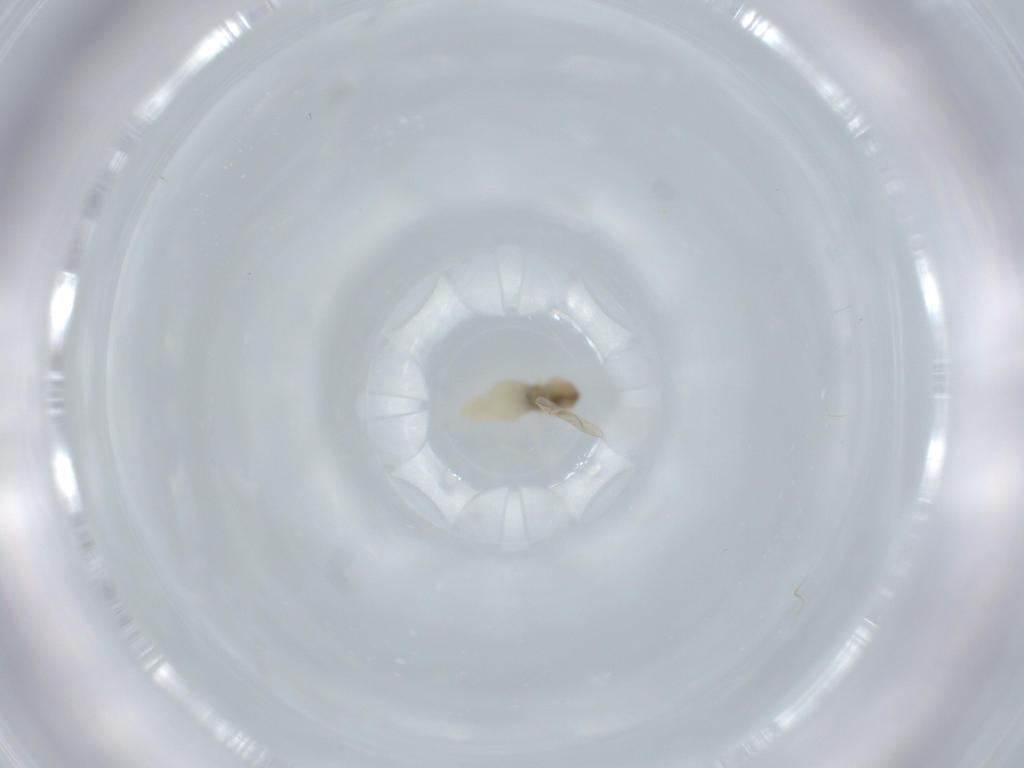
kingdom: Animalia
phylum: Arthropoda
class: Insecta
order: Diptera
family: Cecidomyiidae
